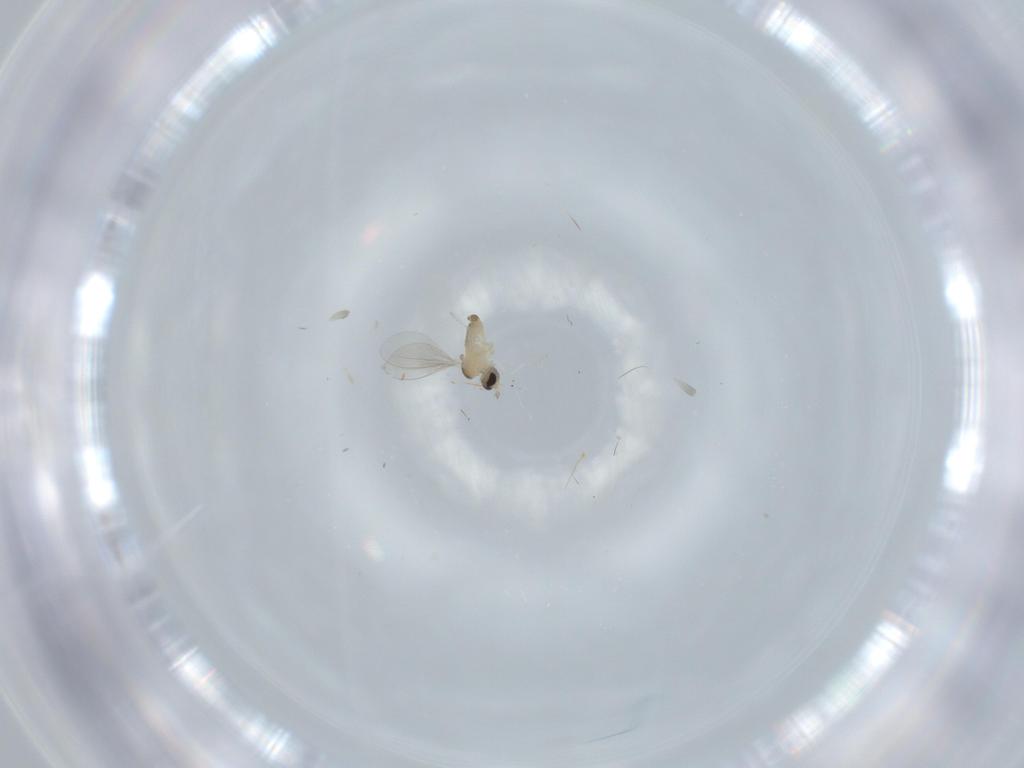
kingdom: Animalia
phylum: Arthropoda
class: Insecta
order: Diptera
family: Cecidomyiidae
